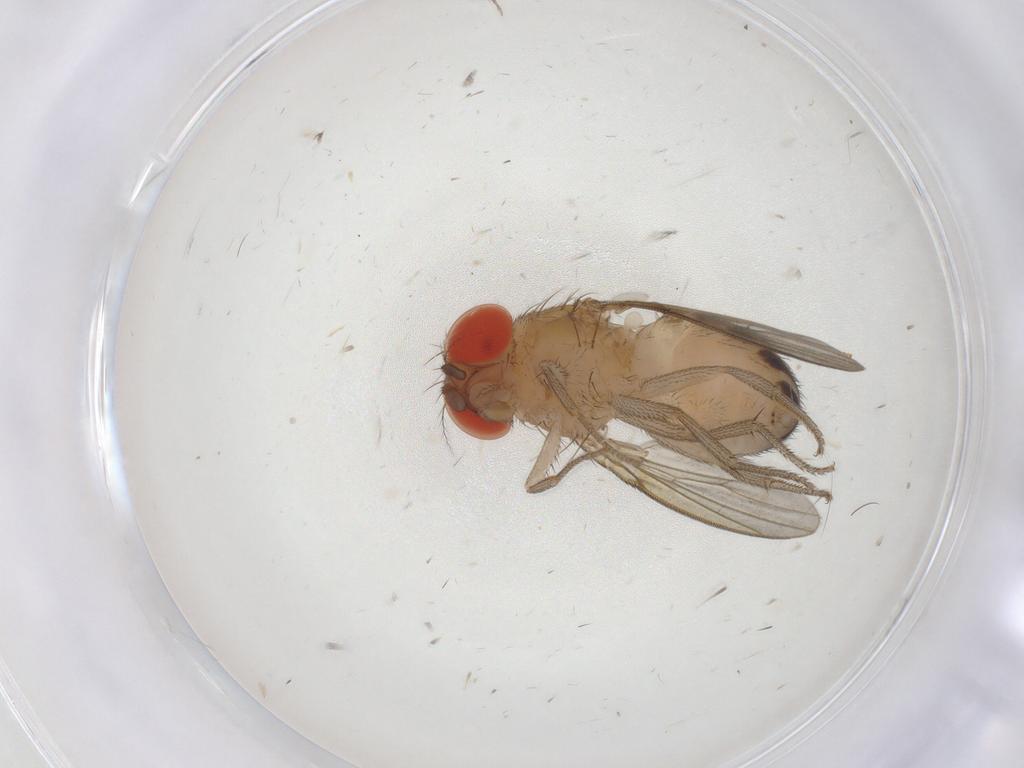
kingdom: Animalia
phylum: Arthropoda
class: Insecta
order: Diptera
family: Drosophilidae
